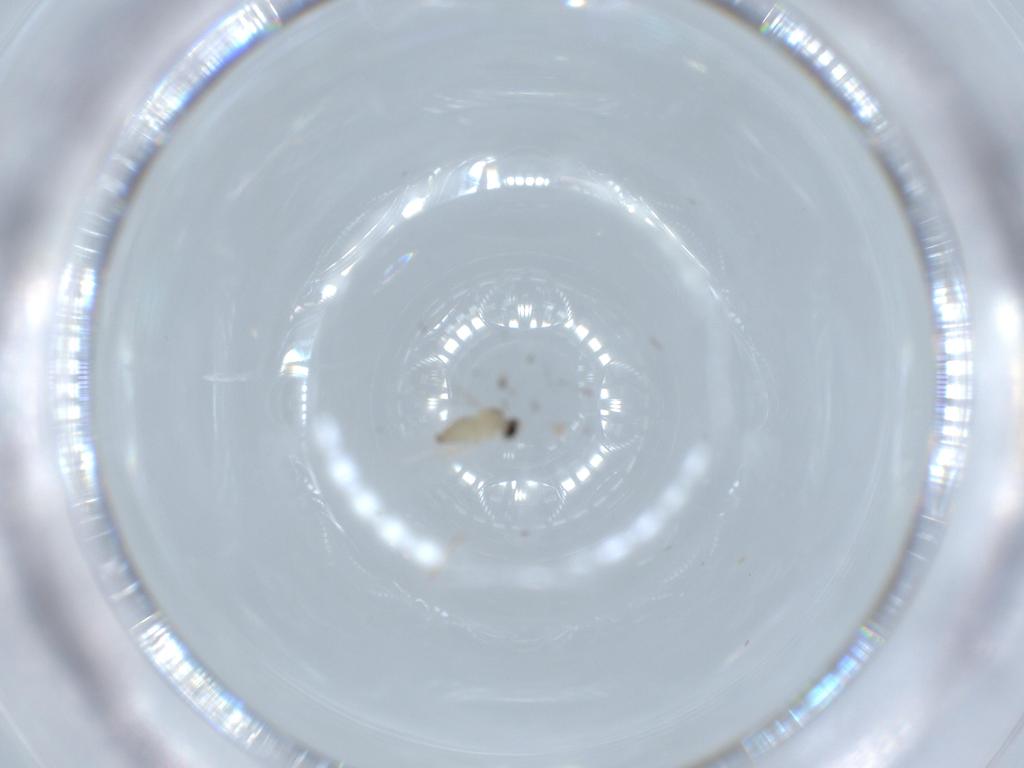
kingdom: Animalia
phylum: Arthropoda
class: Insecta
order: Diptera
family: Cecidomyiidae
